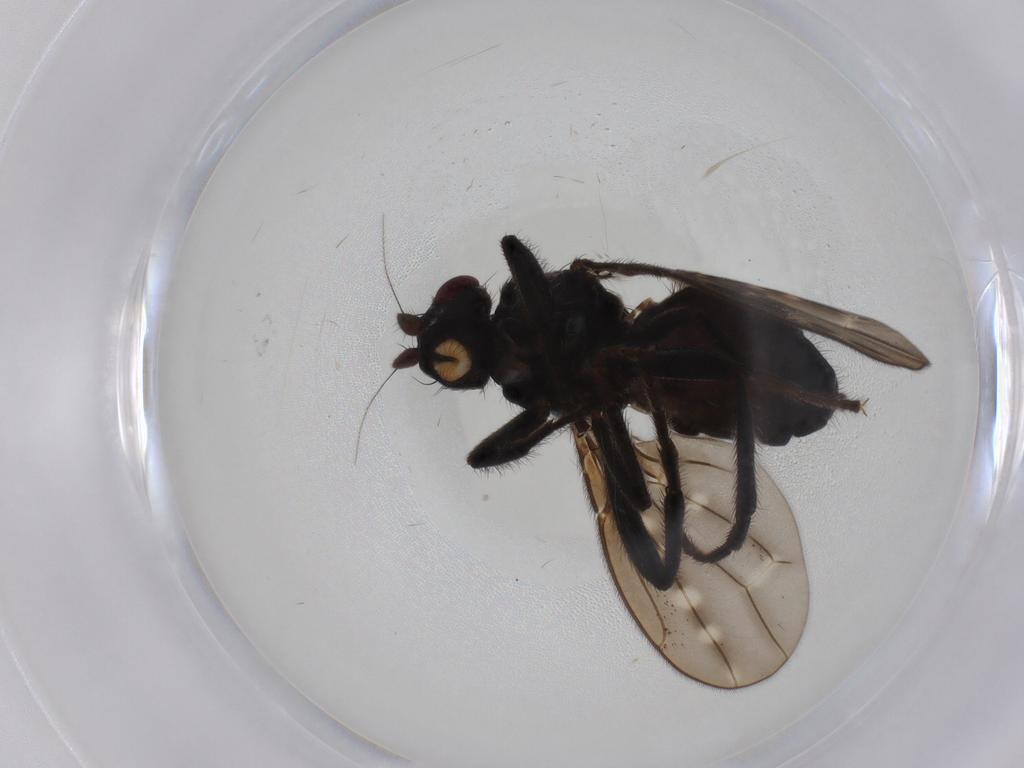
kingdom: Animalia
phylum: Arthropoda
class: Insecta
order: Diptera
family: Sphaeroceridae
